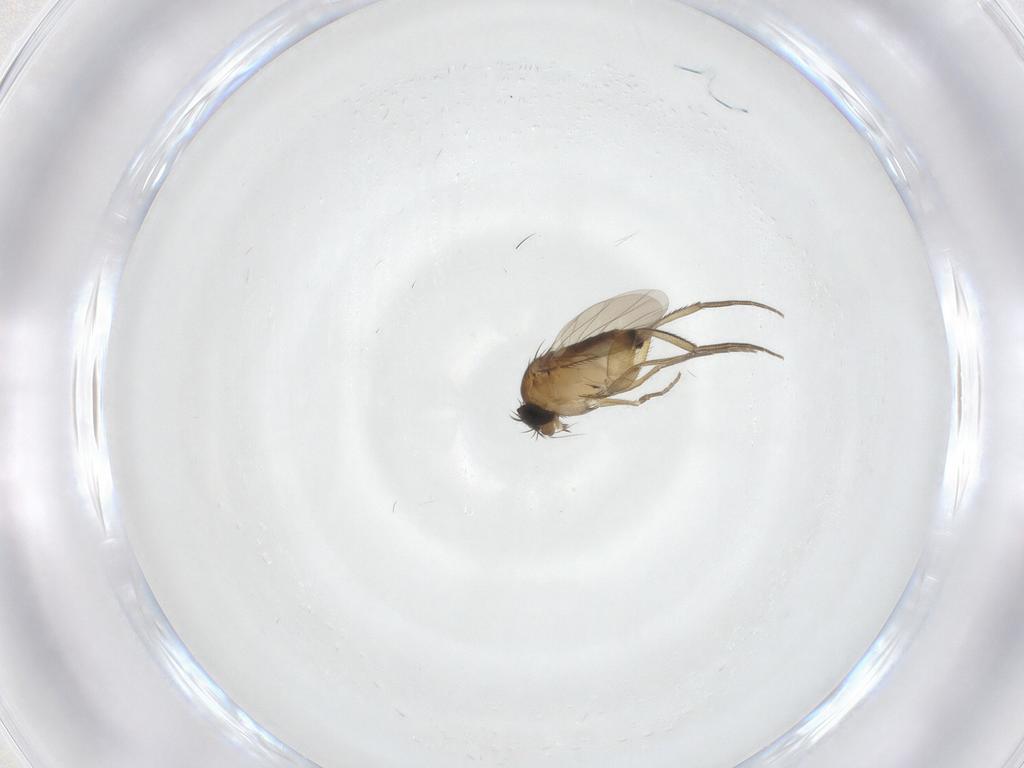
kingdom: Animalia
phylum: Arthropoda
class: Insecta
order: Diptera
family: Phoridae
